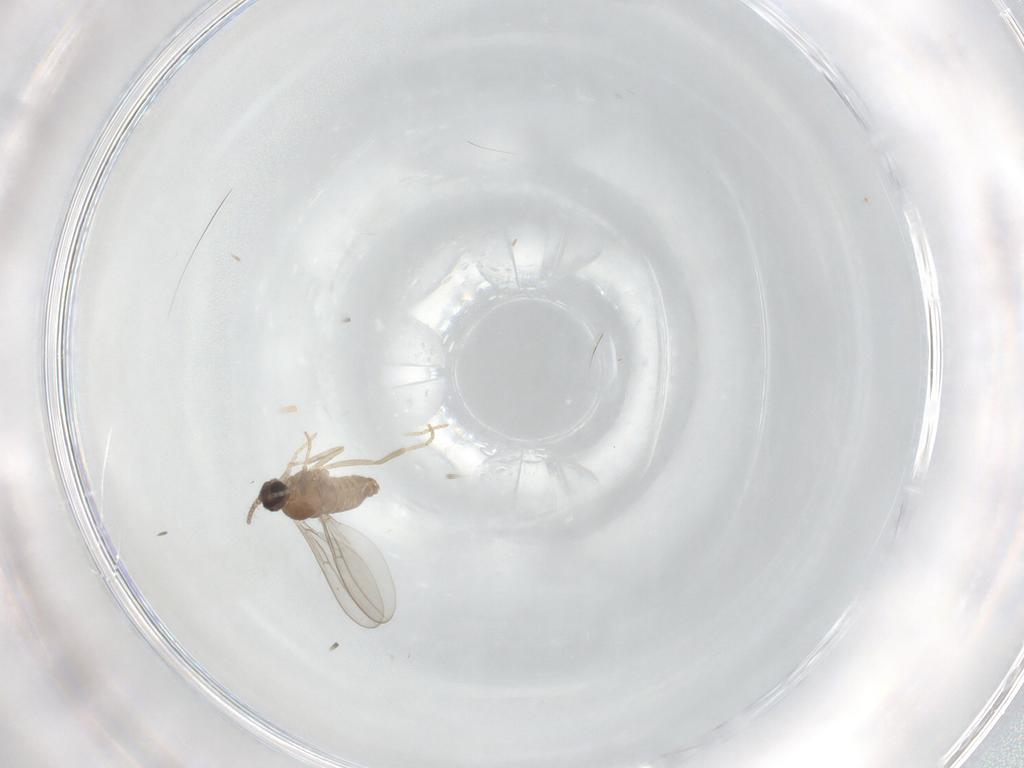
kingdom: Animalia
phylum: Arthropoda
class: Insecta
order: Diptera
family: Cecidomyiidae
